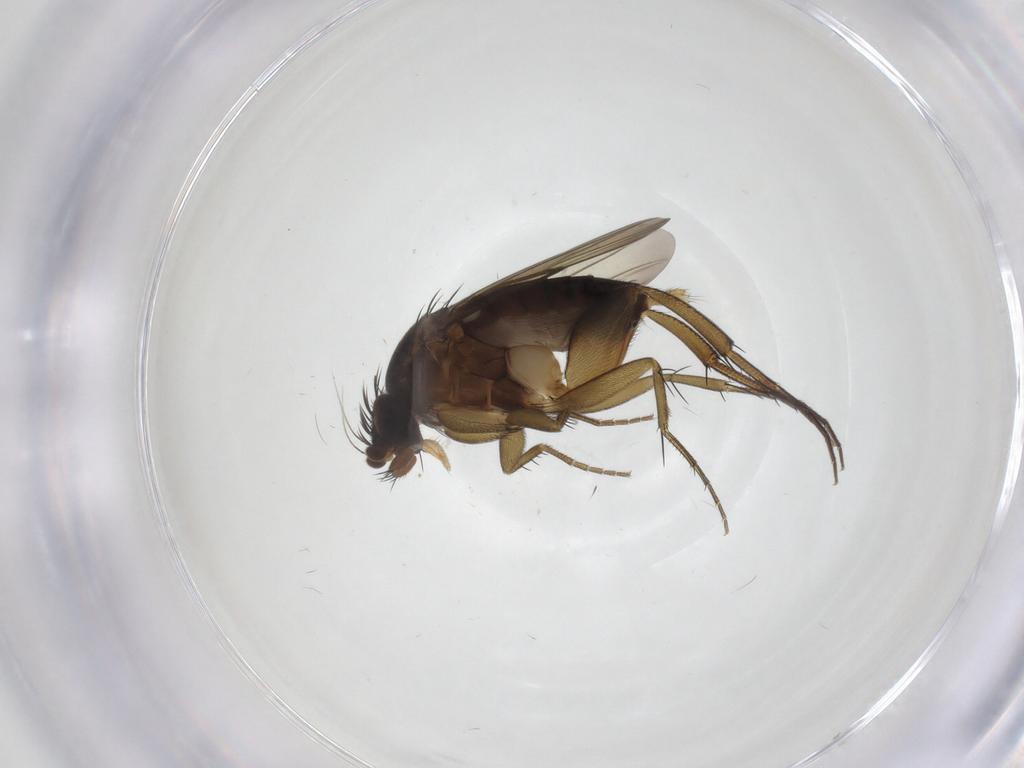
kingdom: Animalia
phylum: Arthropoda
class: Insecta
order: Diptera
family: Phoridae
